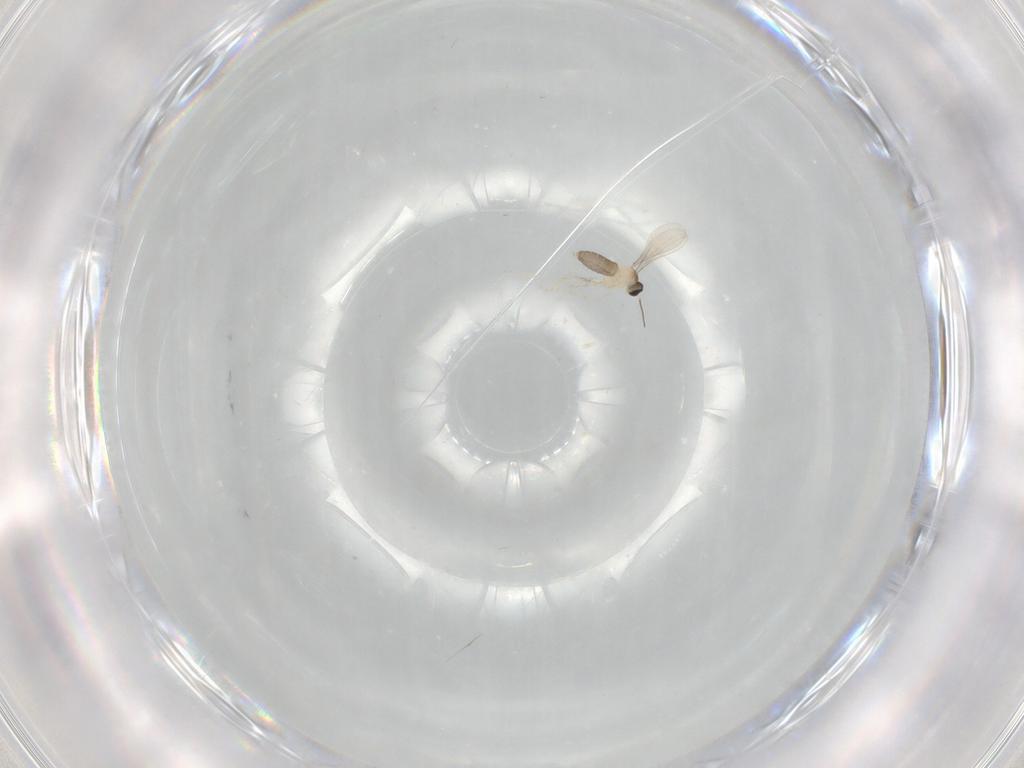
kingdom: Animalia
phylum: Arthropoda
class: Insecta
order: Diptera
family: Cecidomyiidae
